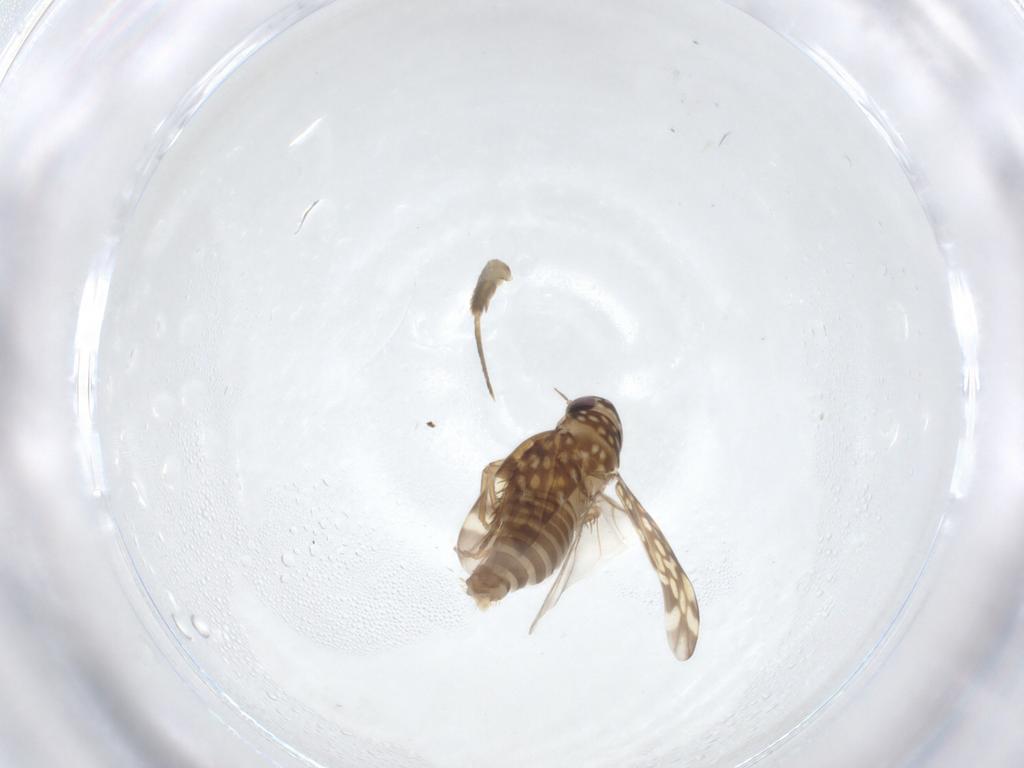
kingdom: Animalia
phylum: Arthropoda
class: Insecta
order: Hemiptera
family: Cicadellidae
